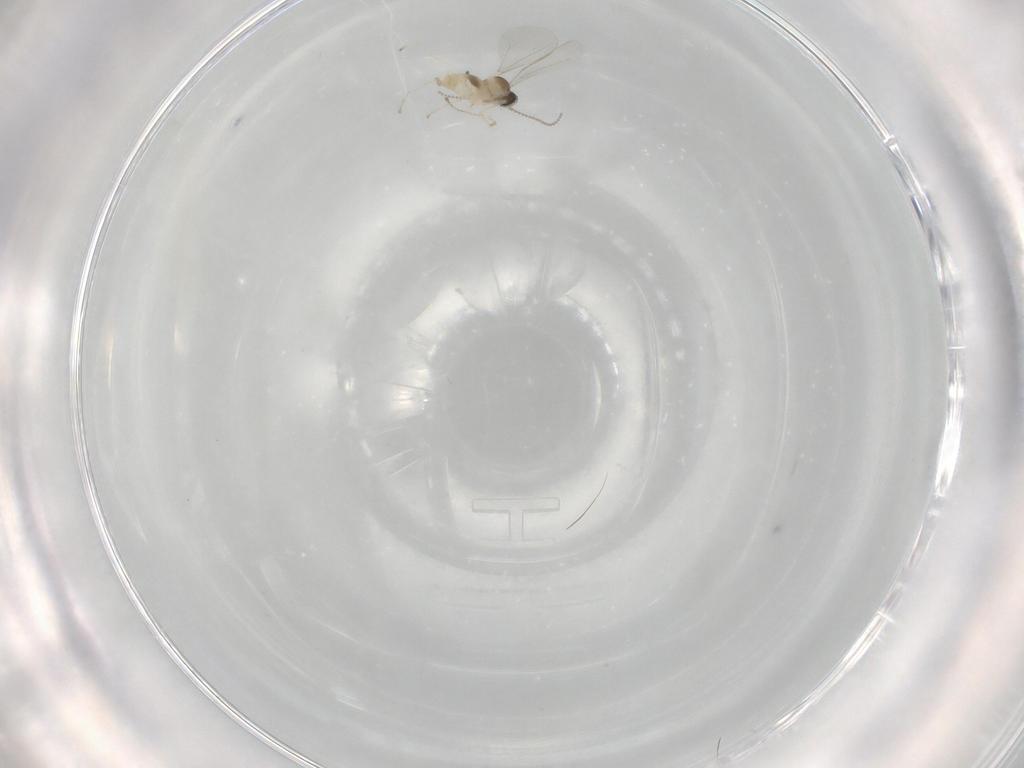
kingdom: Animalia
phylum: Arthropoda
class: Insecta
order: Diptera
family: Cecidomyiidae
